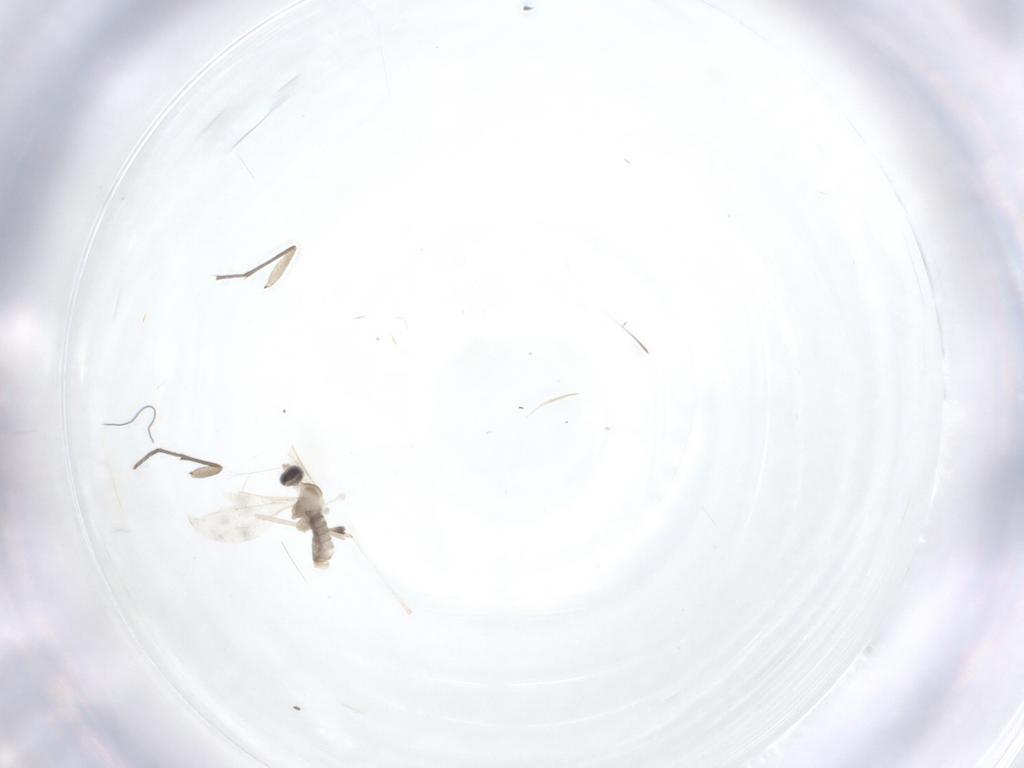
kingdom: Animalia
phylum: Arthropoda
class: Insecta
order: Diptera
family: Sciaridae
